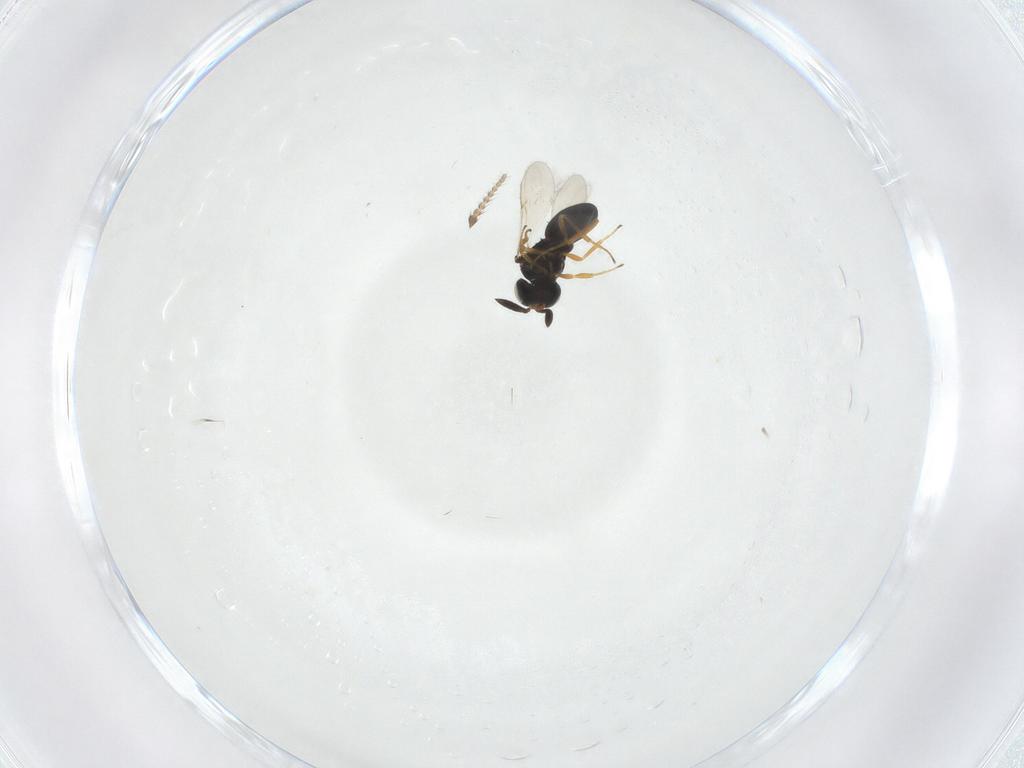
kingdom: Animalia
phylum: Arthropoda
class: Insecta
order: Hymenoptera
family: Scelionidae
